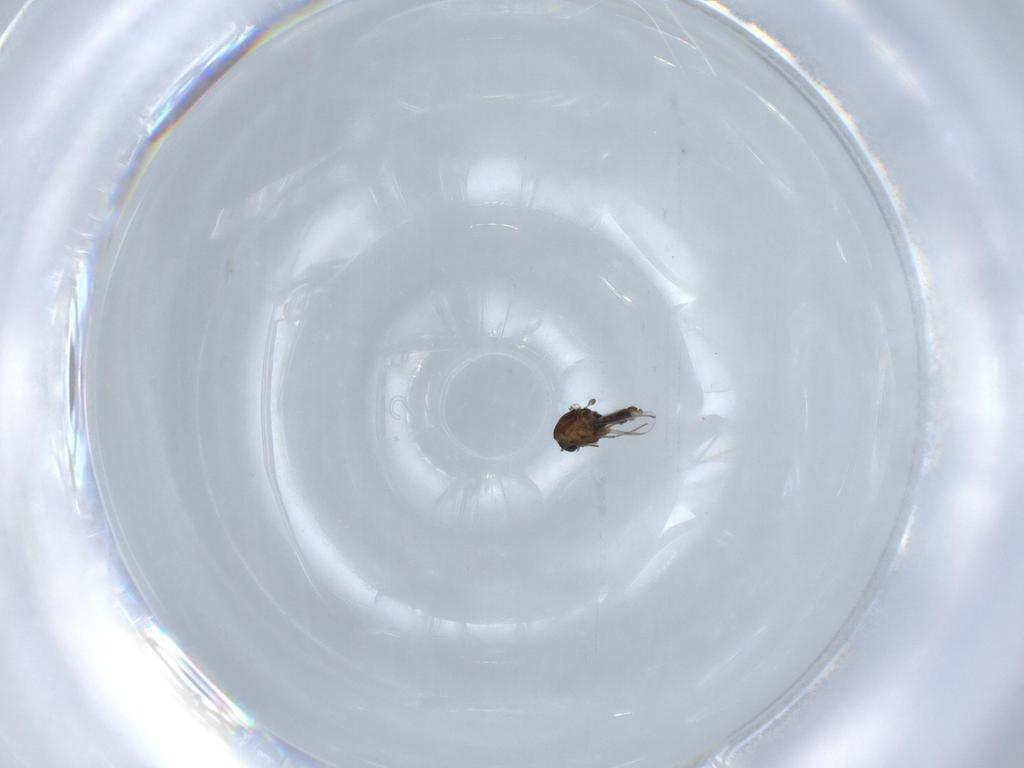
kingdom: Animalia
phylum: Arthropoda
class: Insecta
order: Diptera
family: Chironomidae
